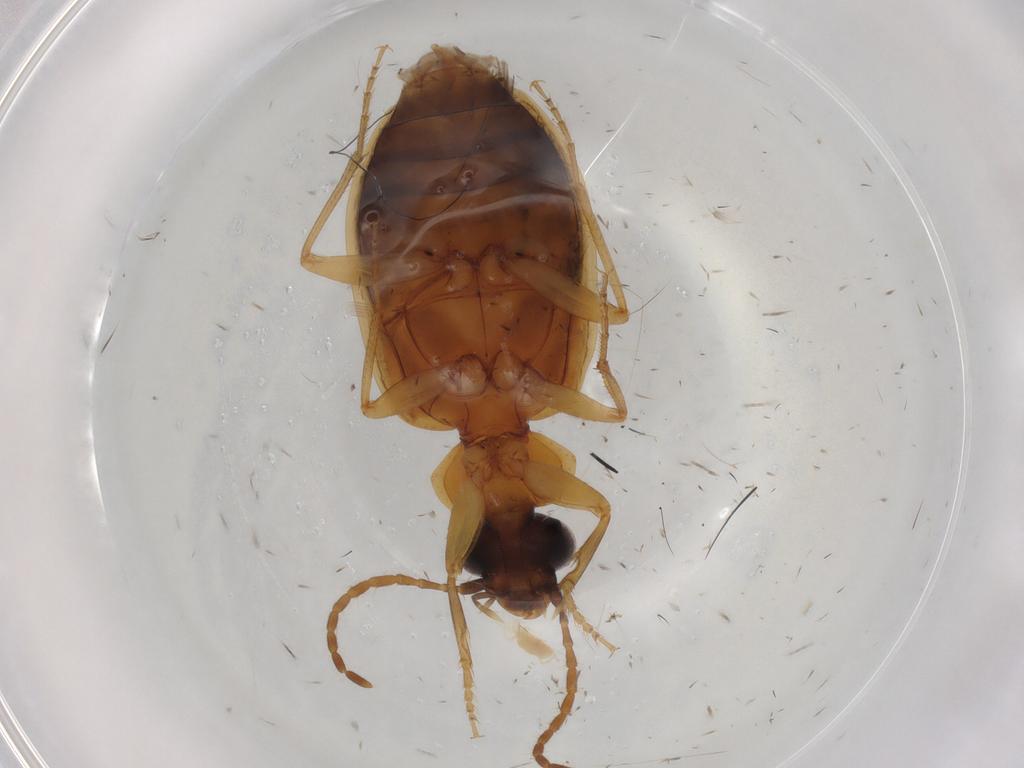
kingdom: Animalia
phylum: Arthropoda
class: Insecta
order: Coleoptera
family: Carabidae
